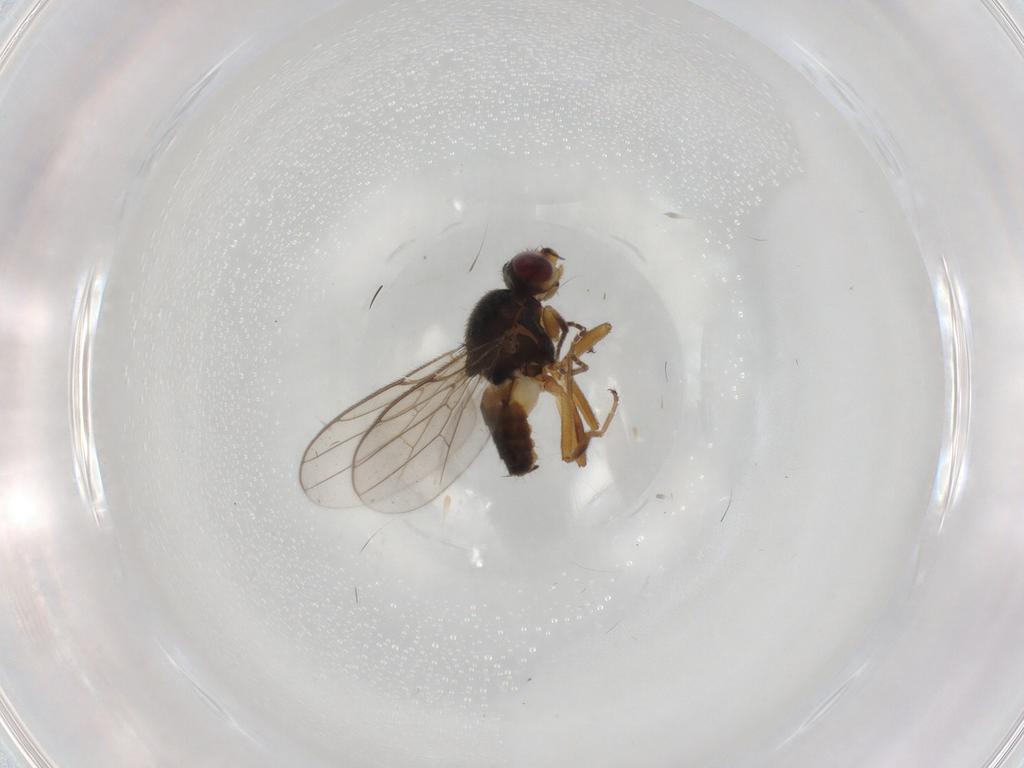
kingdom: Animalia
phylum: Arthropoda
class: Insecta
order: Diptera
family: Chloropidae
